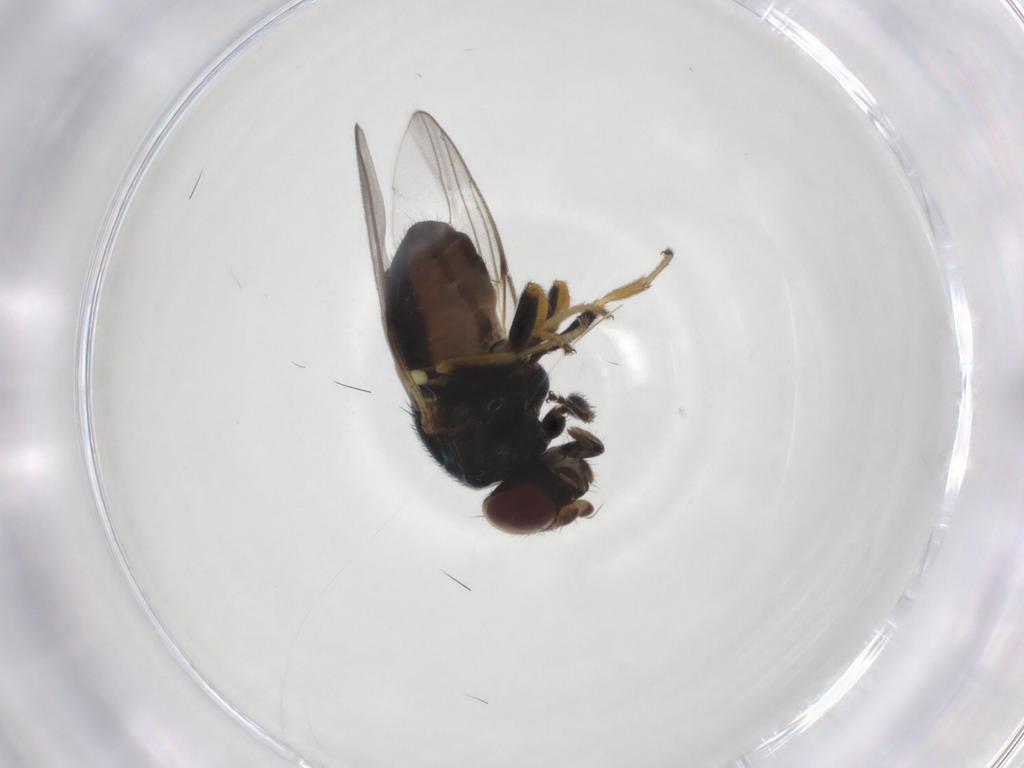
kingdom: Animalia
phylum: Arthropoda
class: Insecta
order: Diptera
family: Chloropidae
